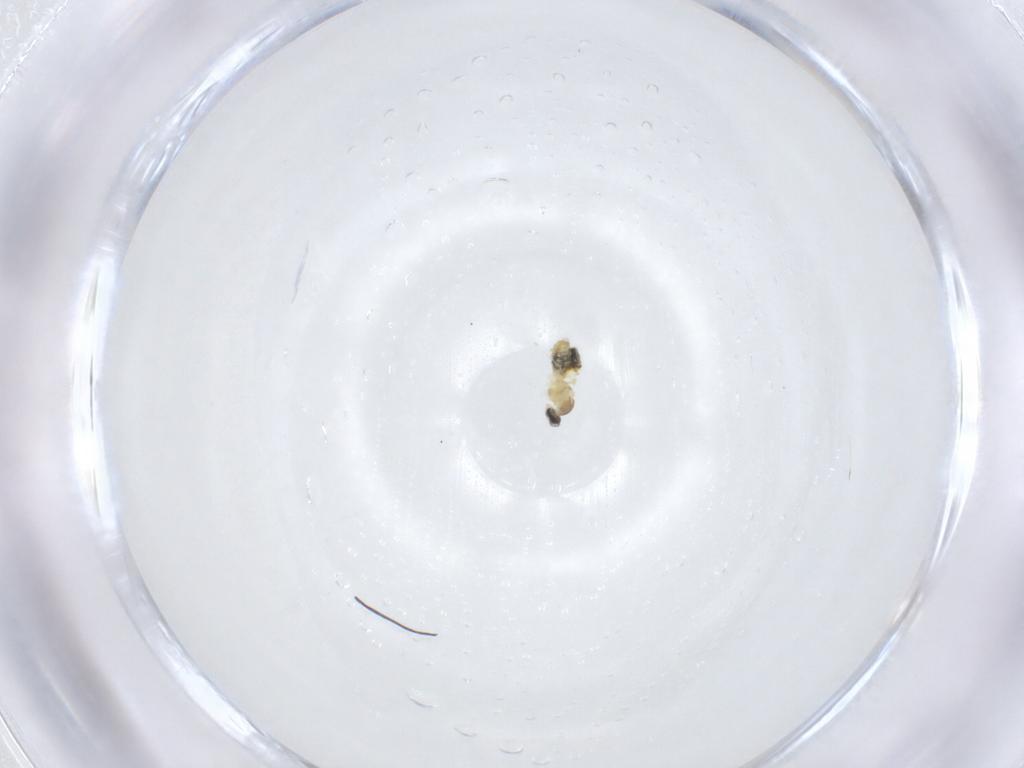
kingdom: Animalia
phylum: Arthropoda
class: Insecta
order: Diptera
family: Cecidomyiidae
